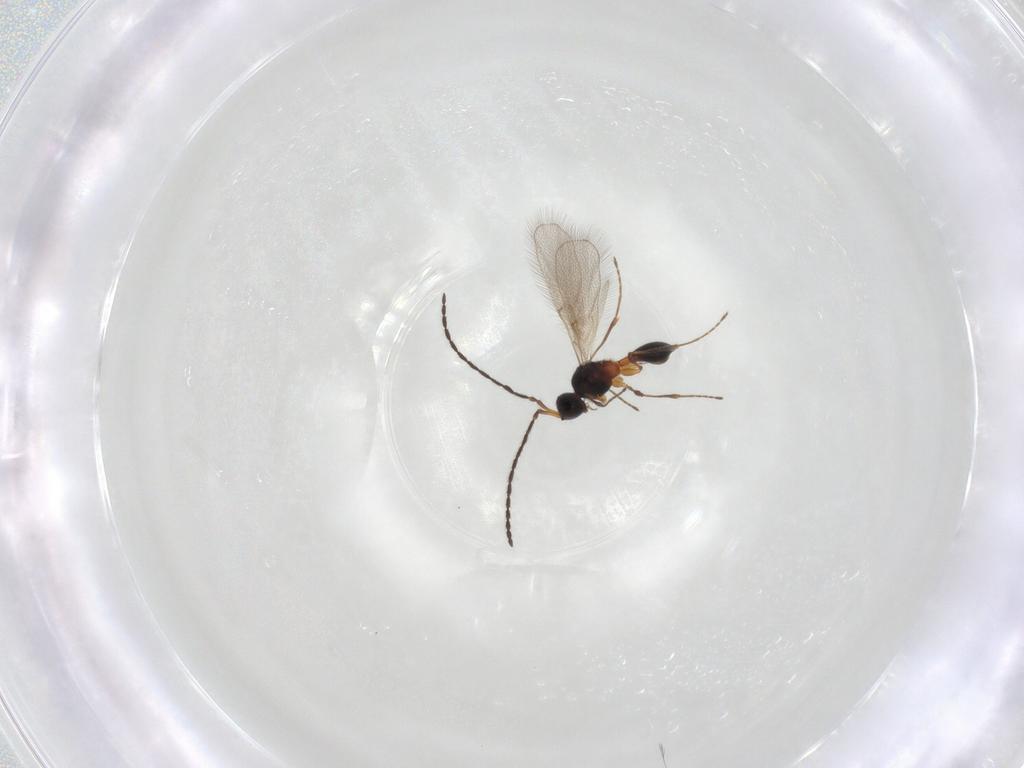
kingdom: Animalia
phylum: Arthropoda
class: Insecta
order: Hymenoptera
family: Diapriidae
